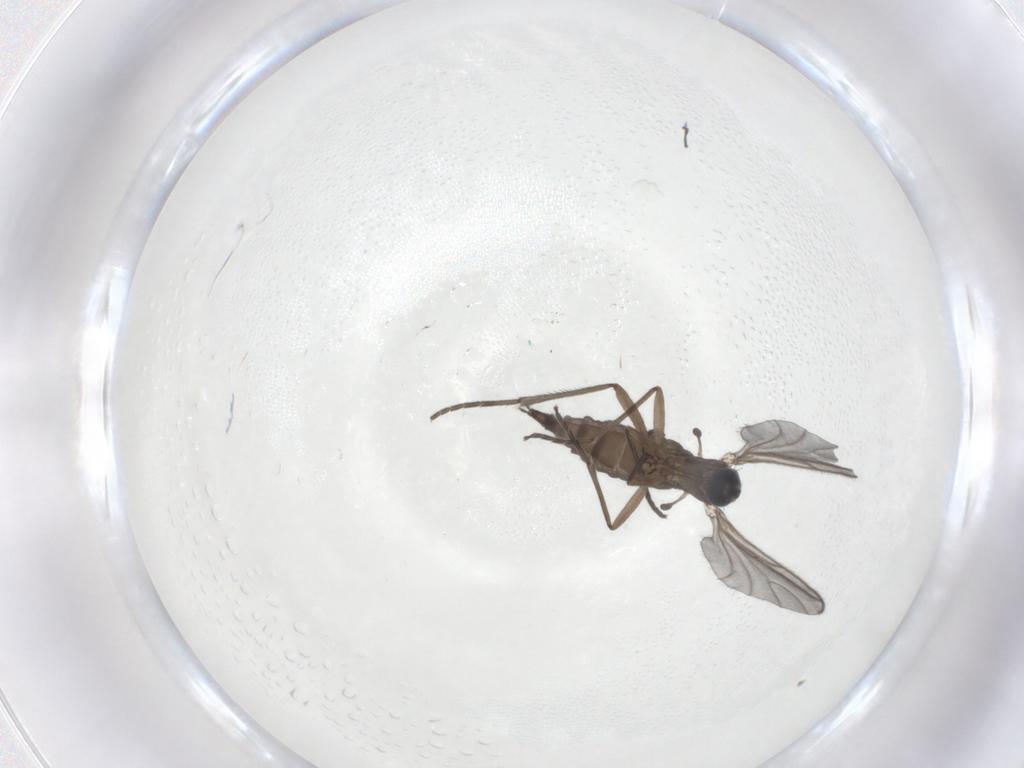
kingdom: Animalia
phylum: Arthropoda
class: Insecta
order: Diptera
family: Sciaridae
